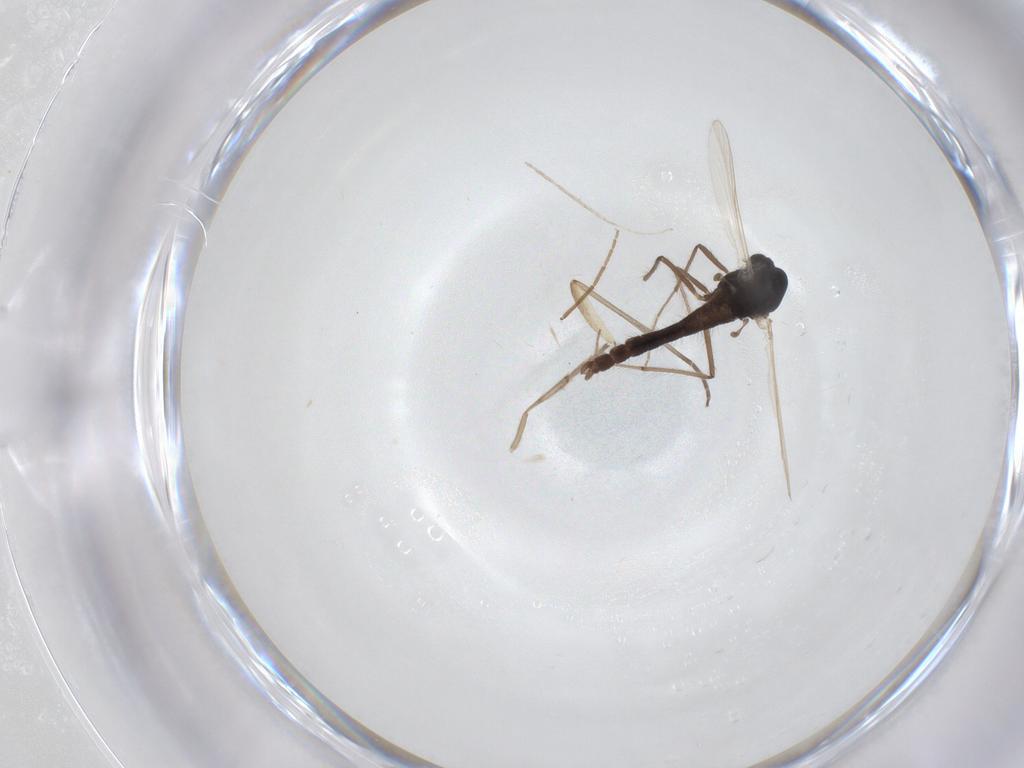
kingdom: Animalia
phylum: Arthropoda
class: Insecta
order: Diptera
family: Chironomidae
